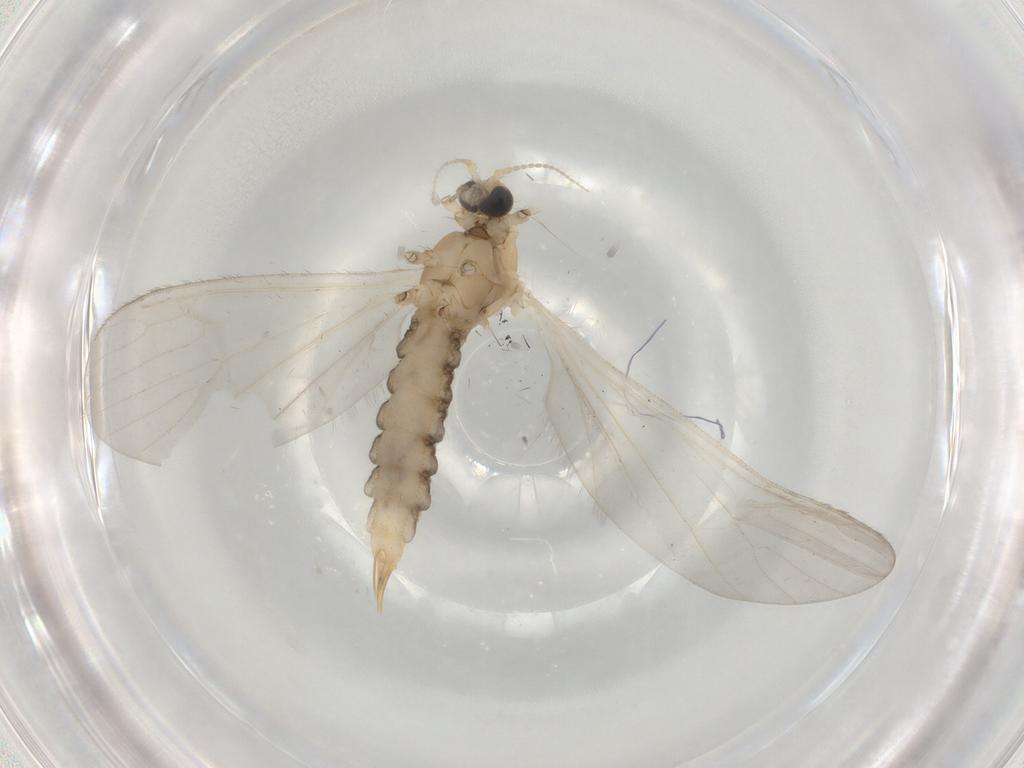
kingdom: Animalia
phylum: Arthropoda
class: Insecta
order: Diptera
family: Limoniidae
